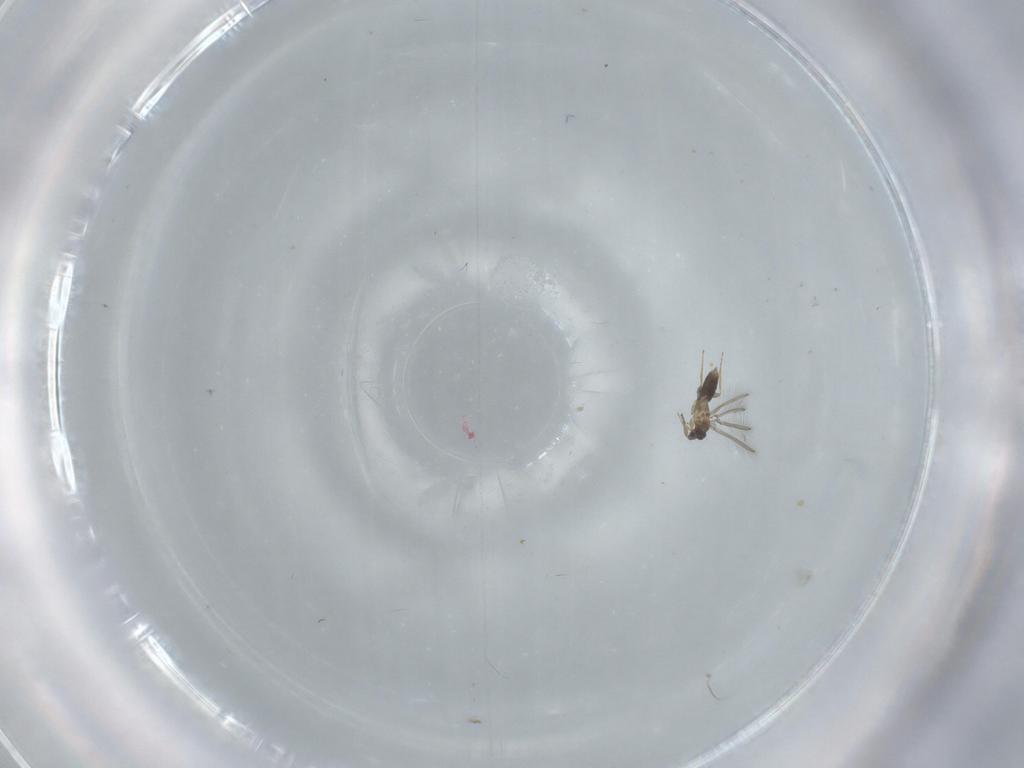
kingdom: Animalia
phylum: Arthropoda
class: Insecta
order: Hymenoptera
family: Mymaridae
